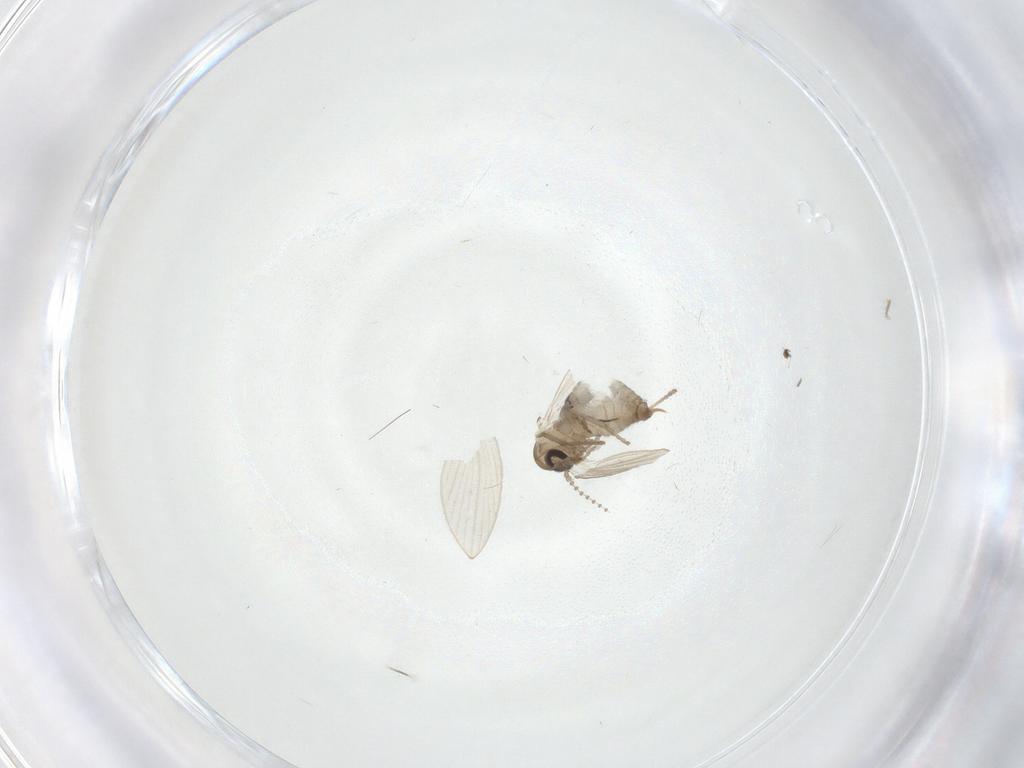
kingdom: Animalia
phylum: Arthropoda
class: Insecta
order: Diptera
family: Psychodidae
